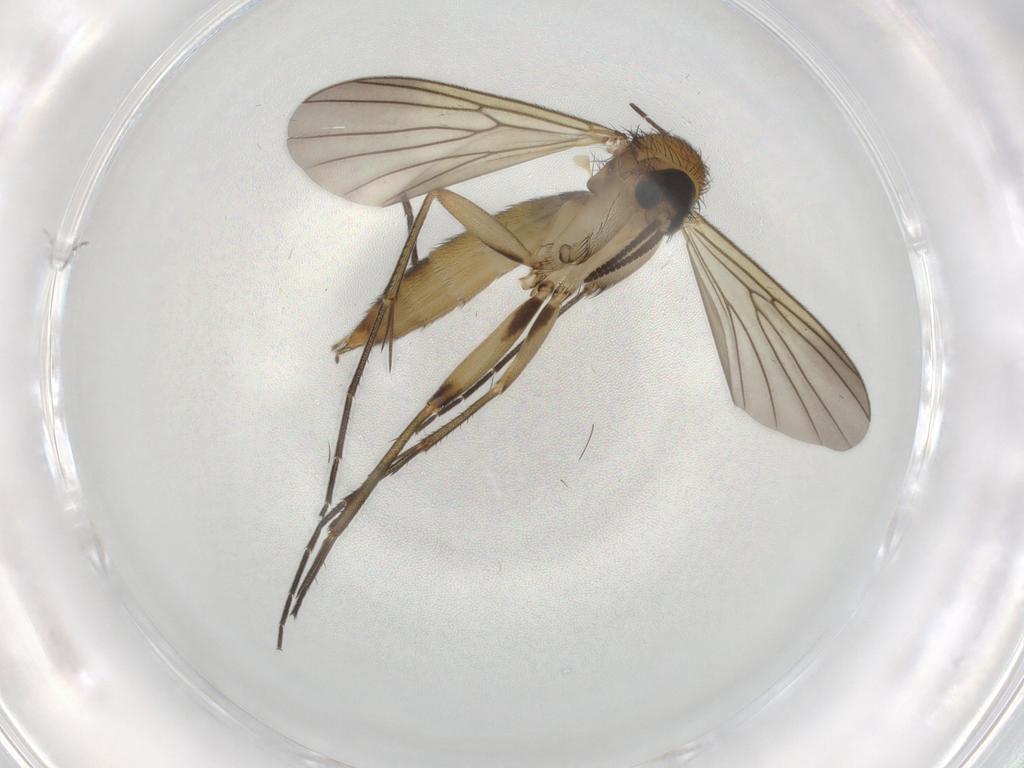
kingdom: Animalia
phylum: Arthropoda
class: Insecta
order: Diptera
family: Mycetophilidae
